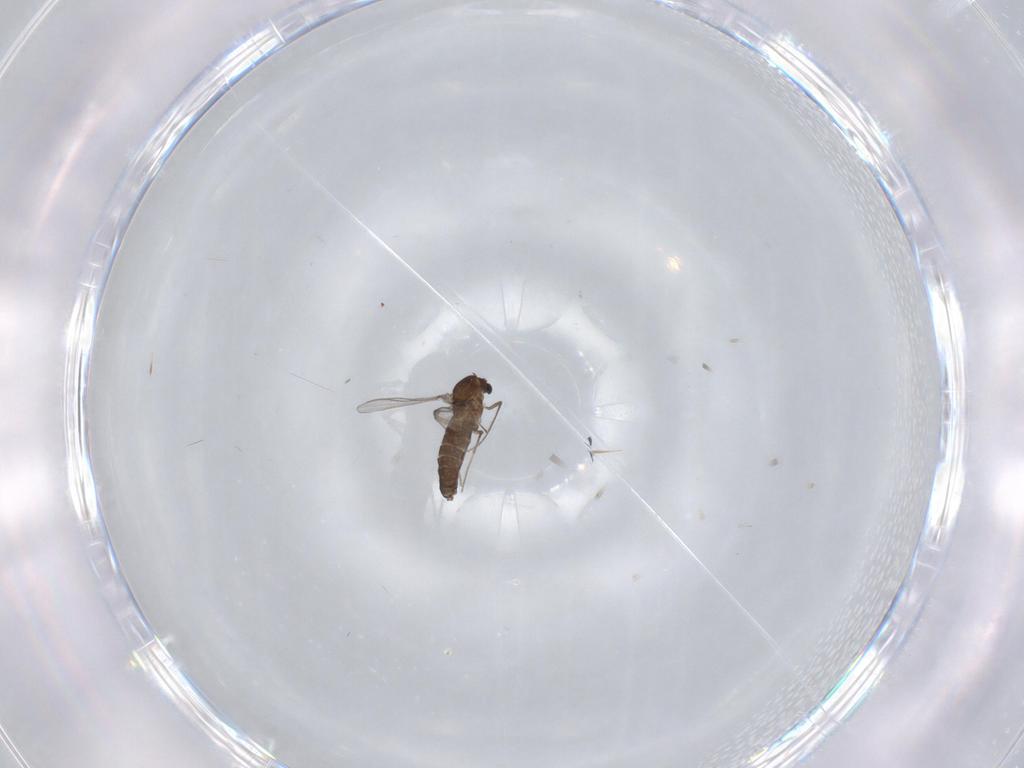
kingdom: Animalia
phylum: Arthropoda
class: Insecta
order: Diptera
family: Chironomidae
